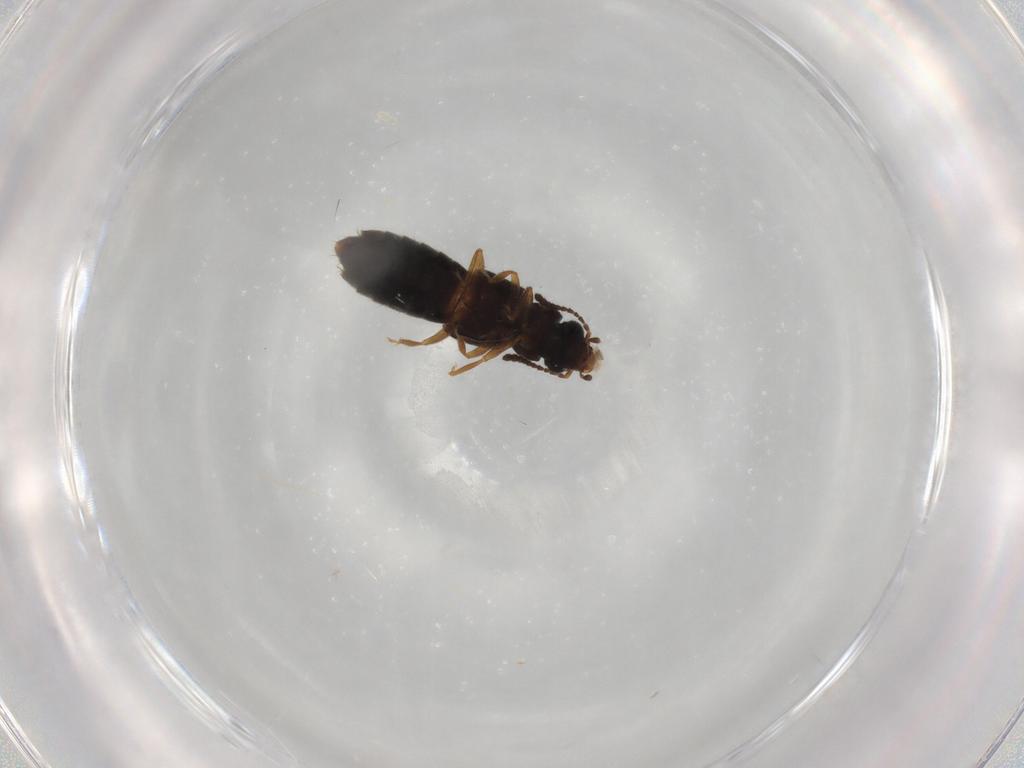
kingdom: Animalia
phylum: Arthropoda
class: Insecta
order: Coleoptera
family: Staphylinidae
